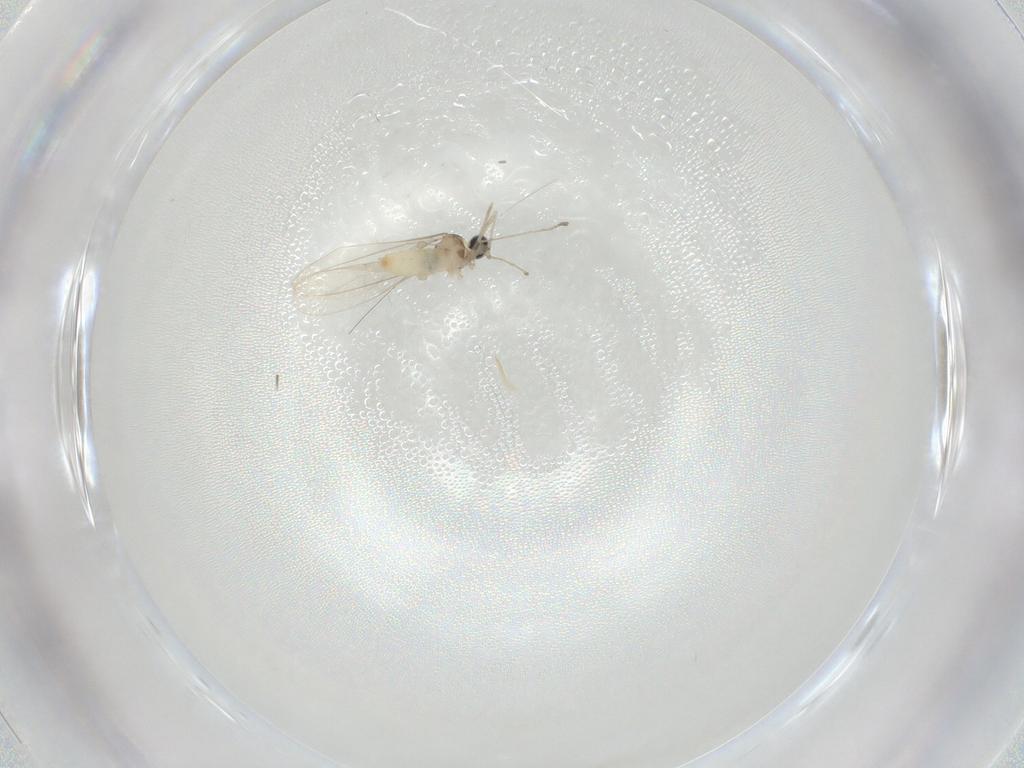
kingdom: Animalia
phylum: Arthropoda
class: Insecta
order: Diptera
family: Cecidomyiidae
